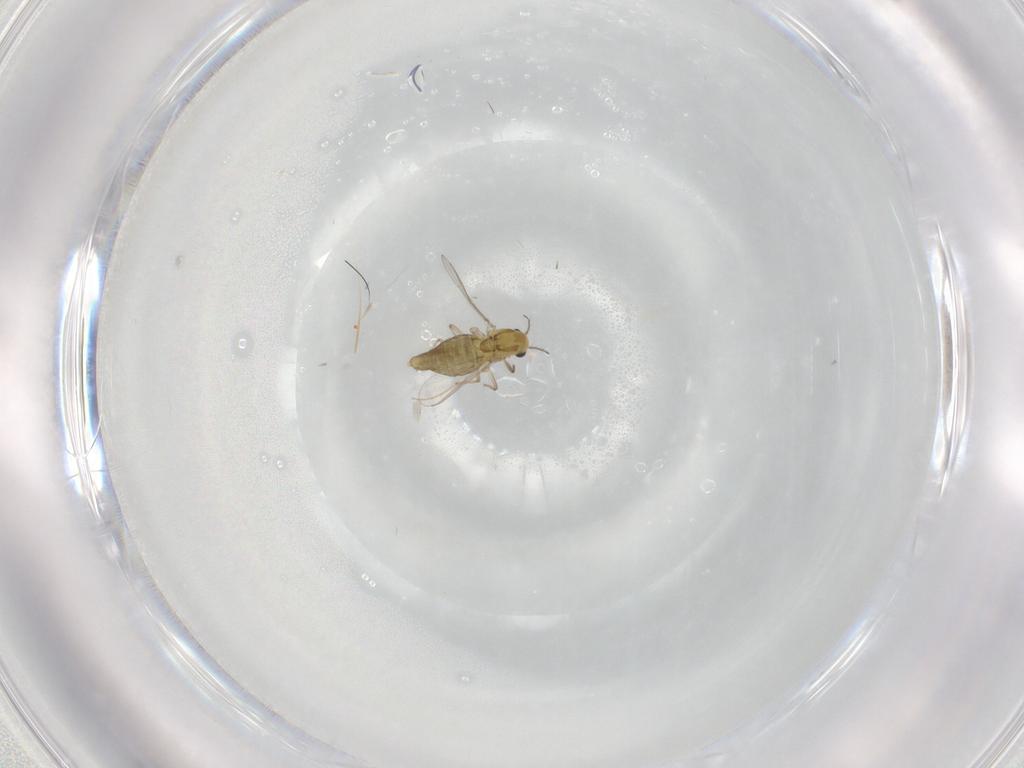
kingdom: Animalia
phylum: Arthropoda
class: Insecta
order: Diptera
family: Chironomidae
